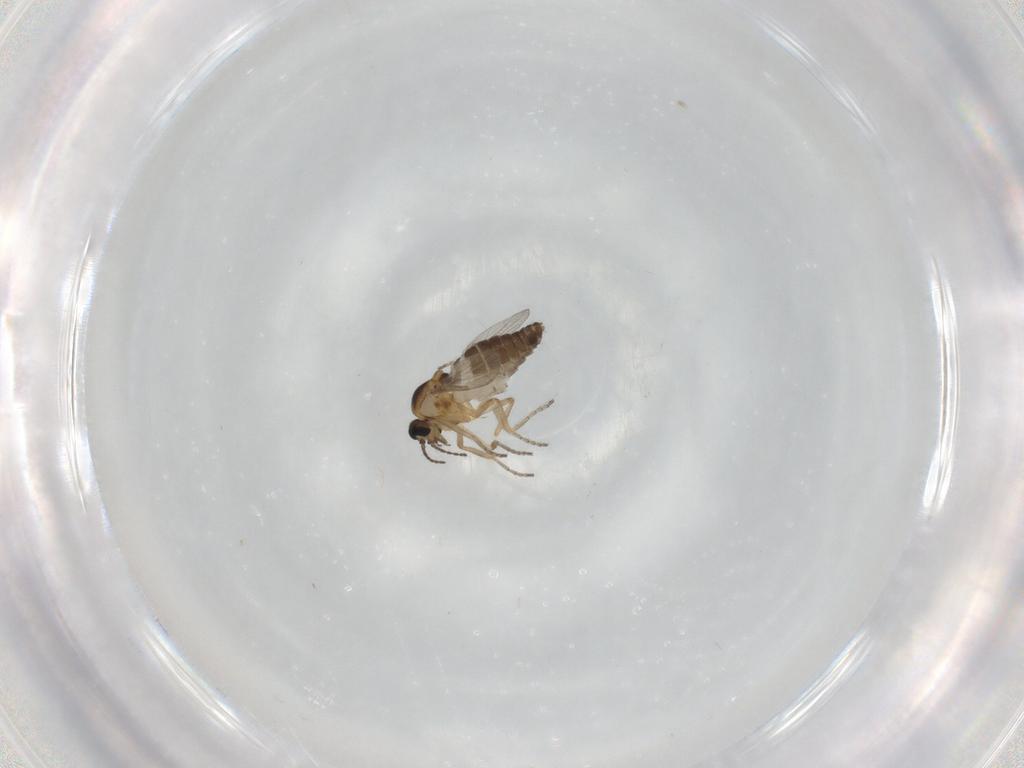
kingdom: Animalia
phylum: Arthropoda
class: Insecta
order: Diptera
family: Ceratopogonidae
